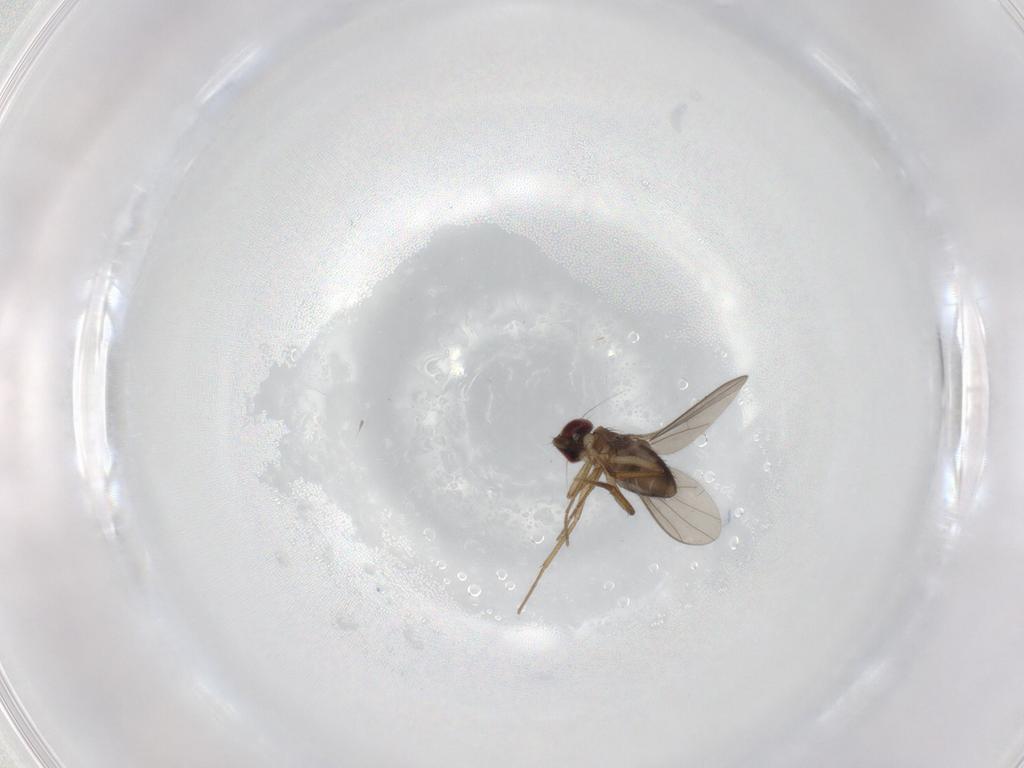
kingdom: Animalia
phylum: Arthropoda
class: Insecta
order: Diptera
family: Dolichopodidae
